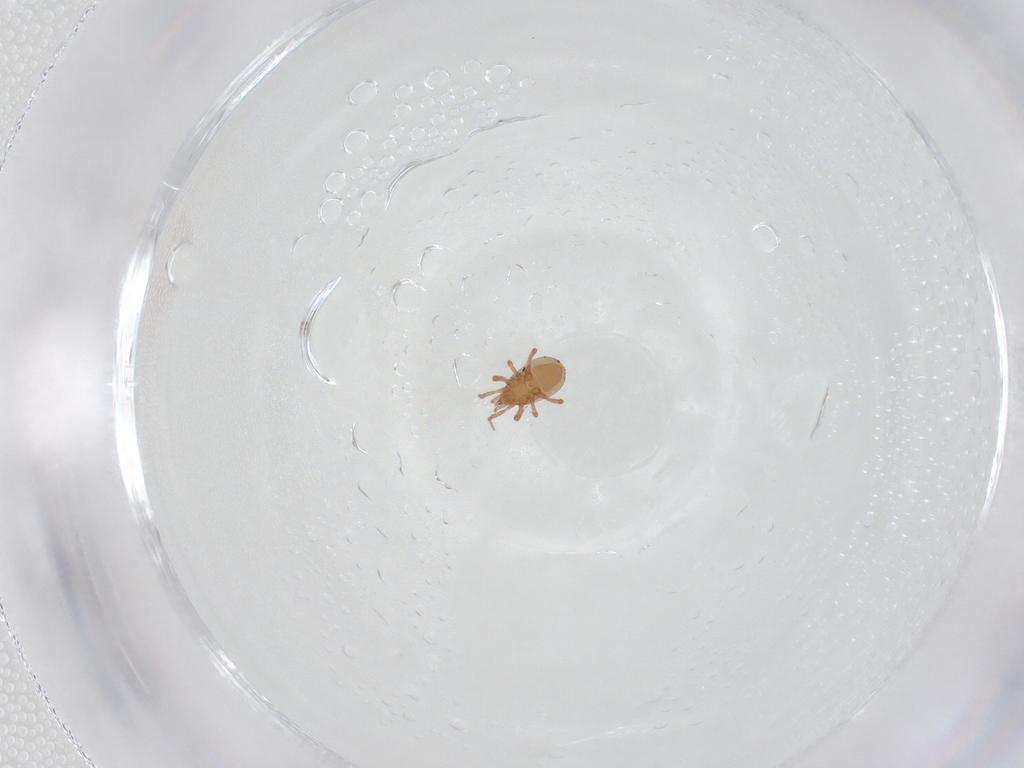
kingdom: Animalia
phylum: Arthropoda
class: Arachnida
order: Mesostigmata
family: Ologamasidae
